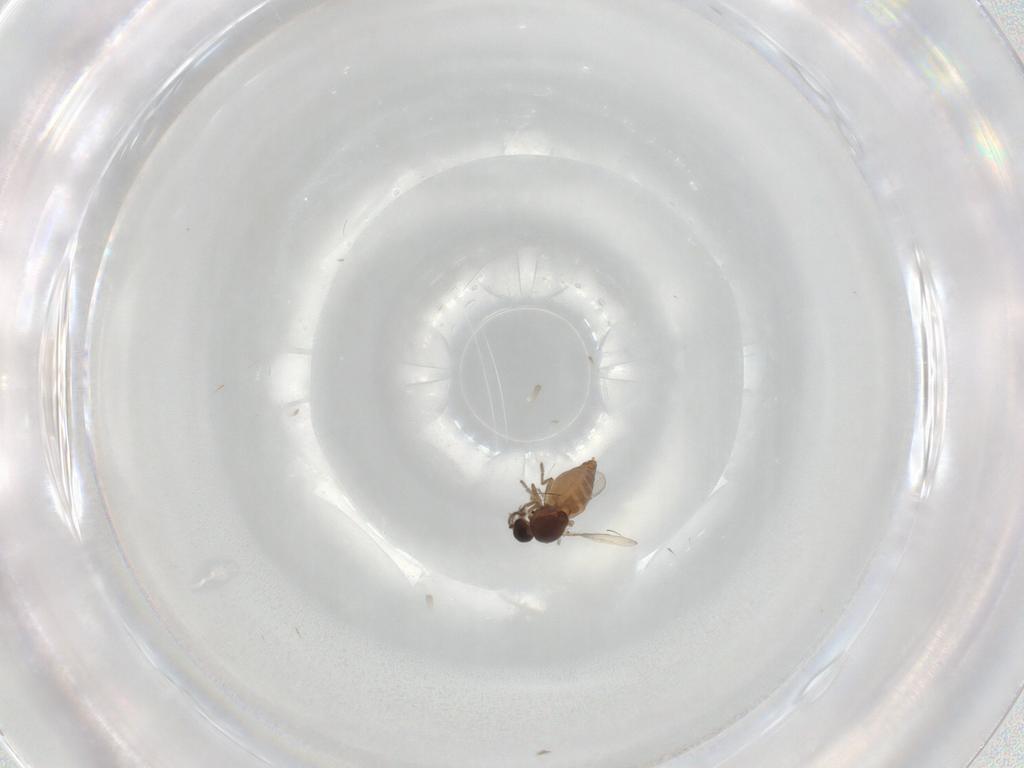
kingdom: Animalia
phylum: Arthropoda
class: Insecta
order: Diptera
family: Ceratopogonidae
